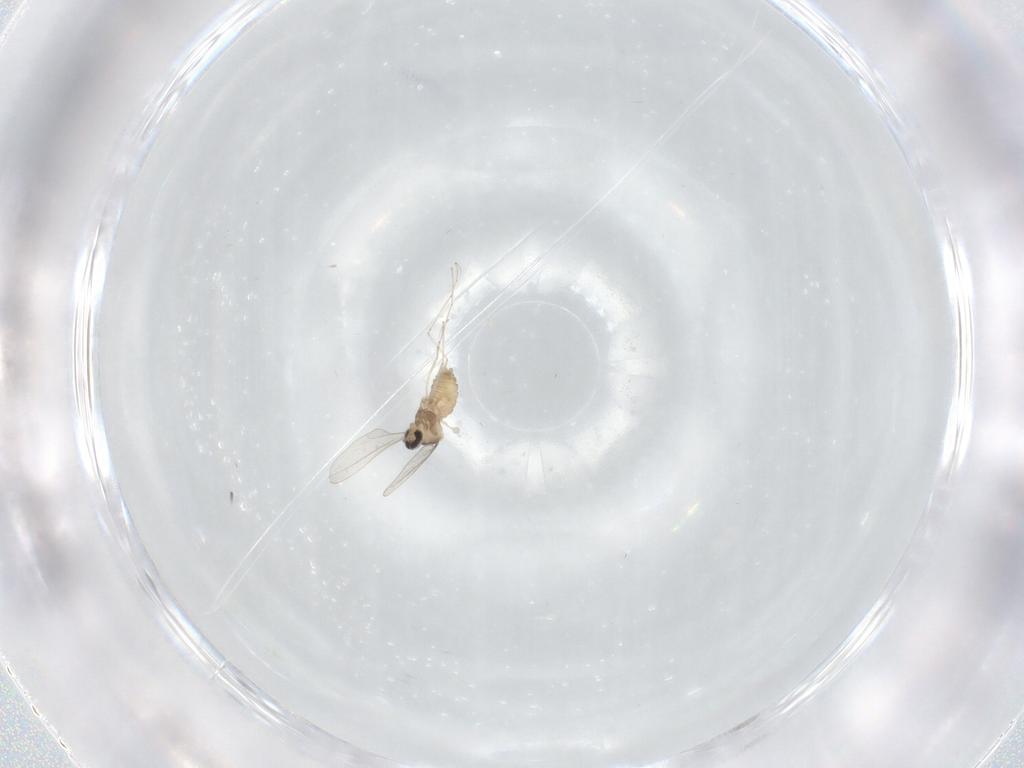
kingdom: Animalia
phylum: Arthropoda
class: Insecta
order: Diptera
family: Cecidomyiidae
